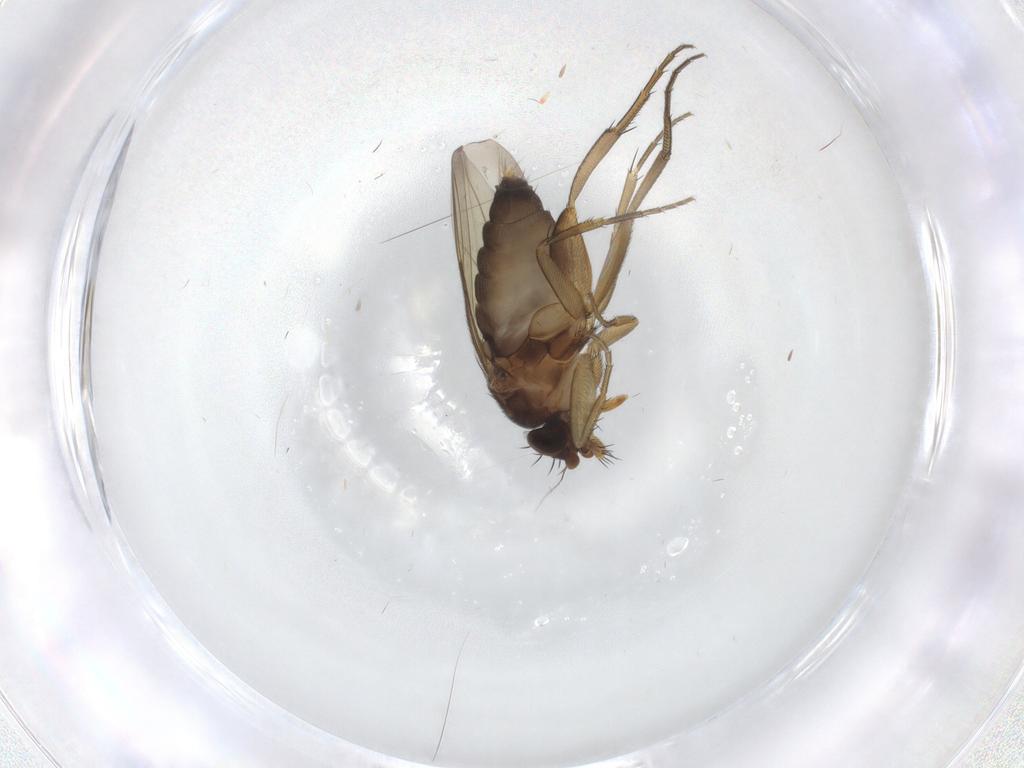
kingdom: Animalia
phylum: Arthropoda
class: Insecta
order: Diptera
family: Phoridae
